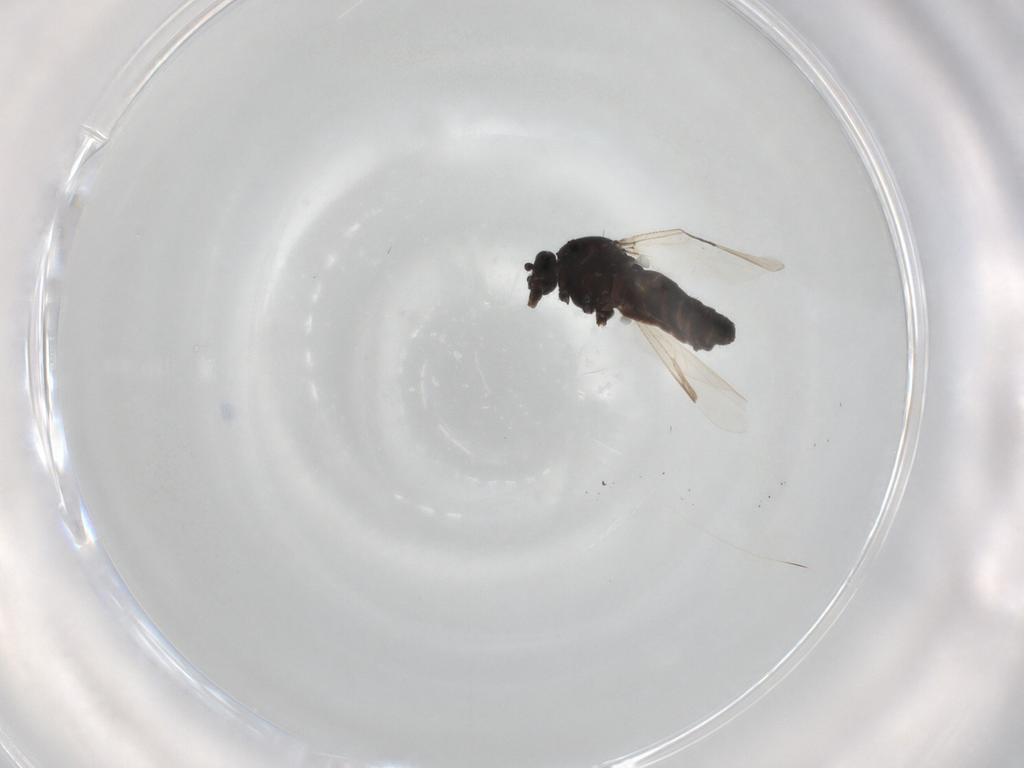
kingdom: Animalia
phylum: Arthropoda
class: Insecta
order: Diptera
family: Ceratopogonidae
